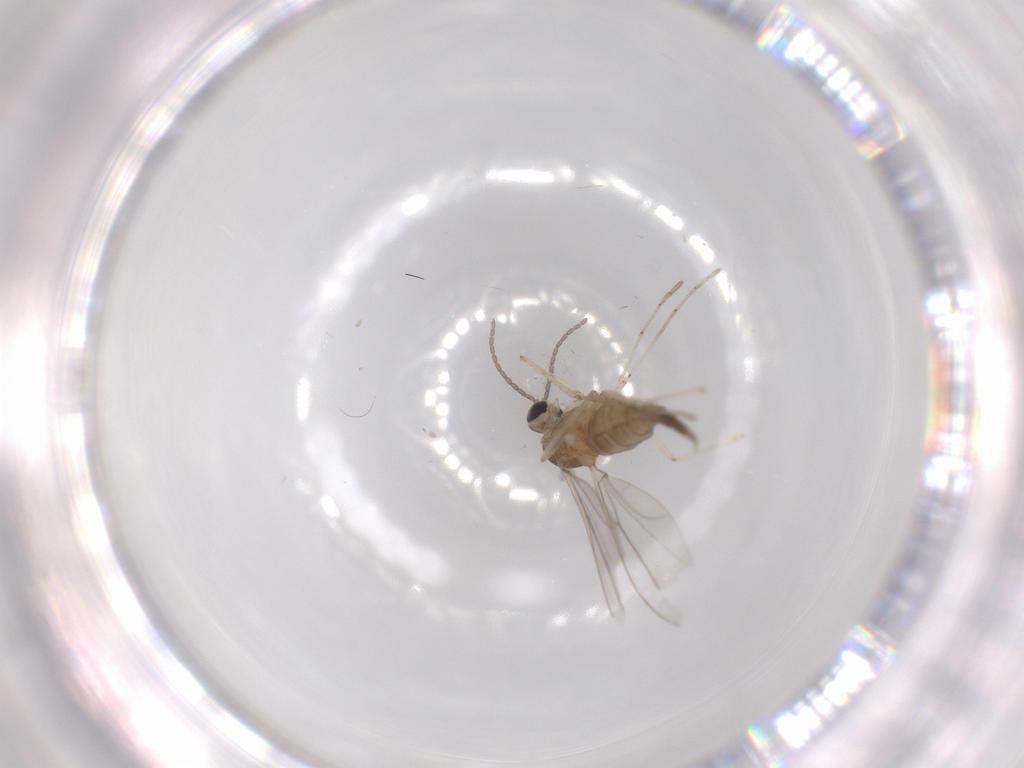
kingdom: Animalia
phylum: Arthropoda
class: Insecta
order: Diptera
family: Cecidomyiidae
